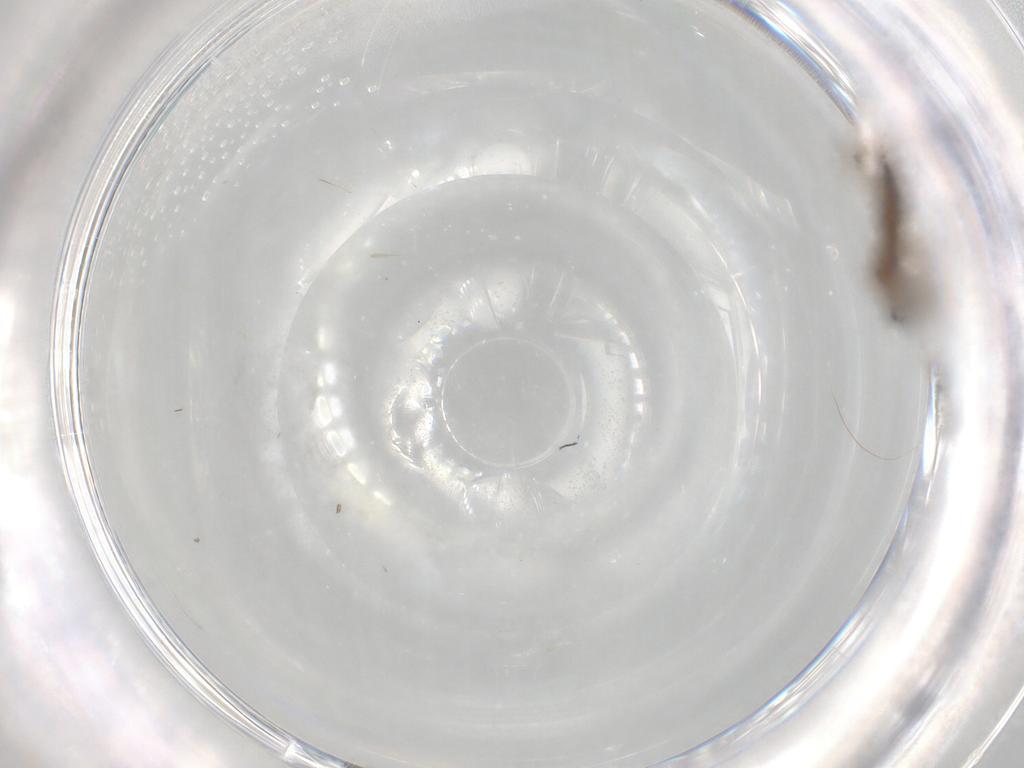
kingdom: Animalia
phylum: Arthropoda
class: Insecta
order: Diptera
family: Sciaridae
